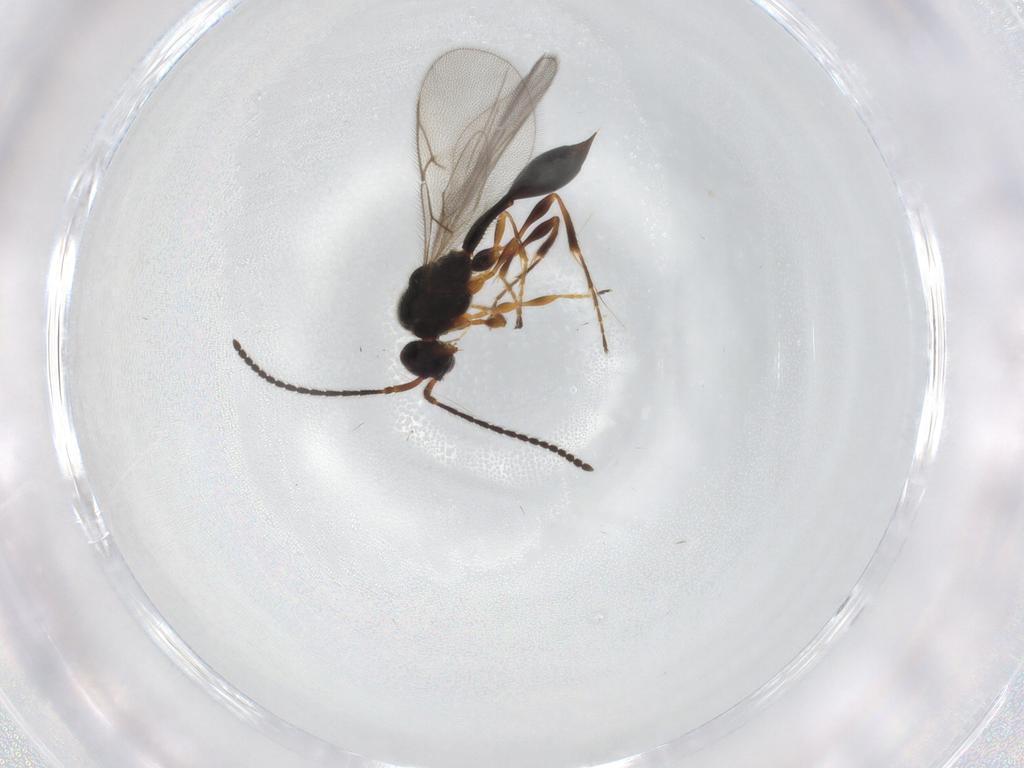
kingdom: Animalia
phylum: Arthropoda
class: Insecta
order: Hymenoptera
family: Diapriidae
